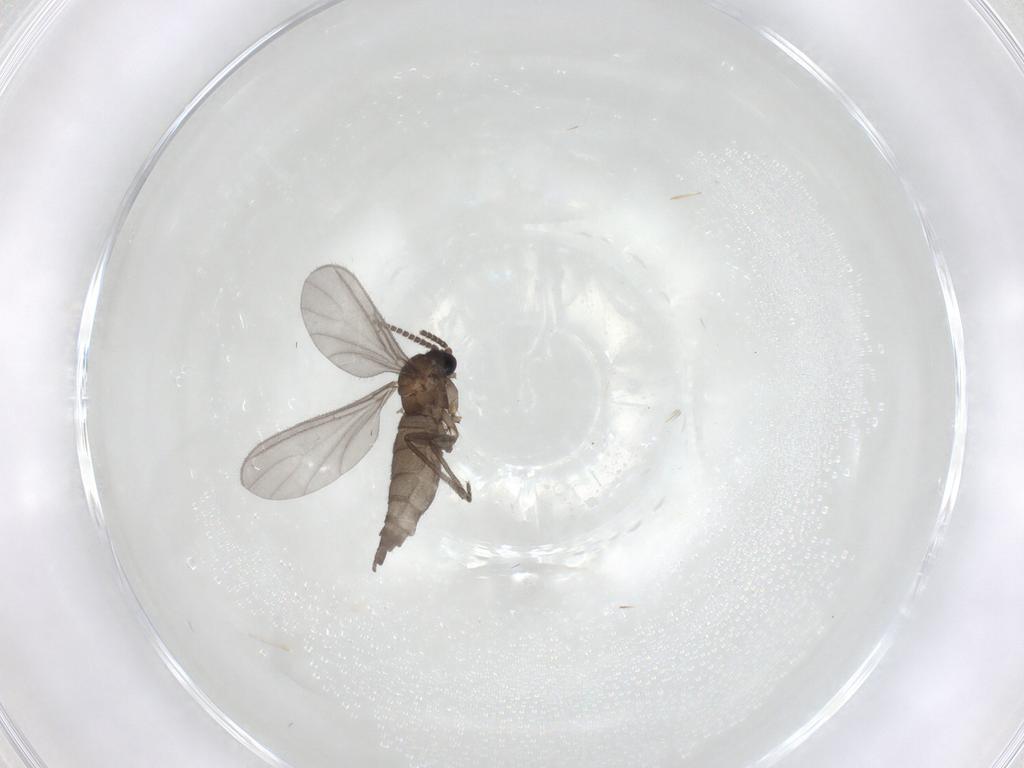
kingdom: Animalia
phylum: Arthropoda
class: Insecta
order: Diptera
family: Sciaridae
